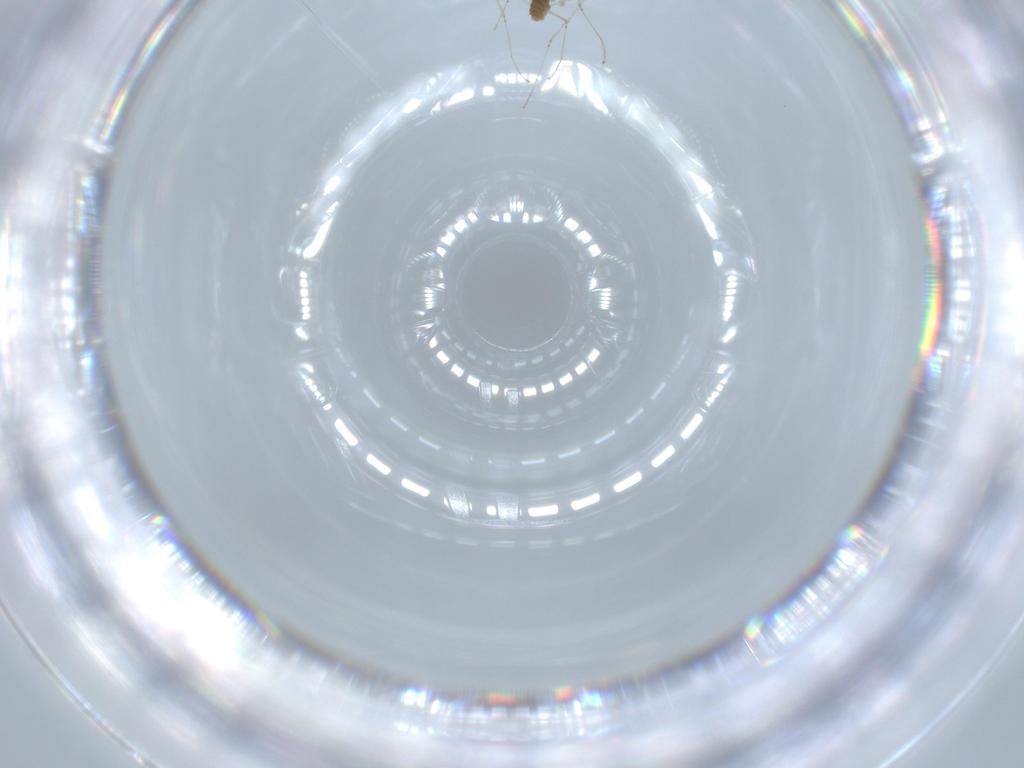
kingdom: Animalia
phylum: Arthropoda
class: Insecta
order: Diptera
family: Cecidomyiidae
